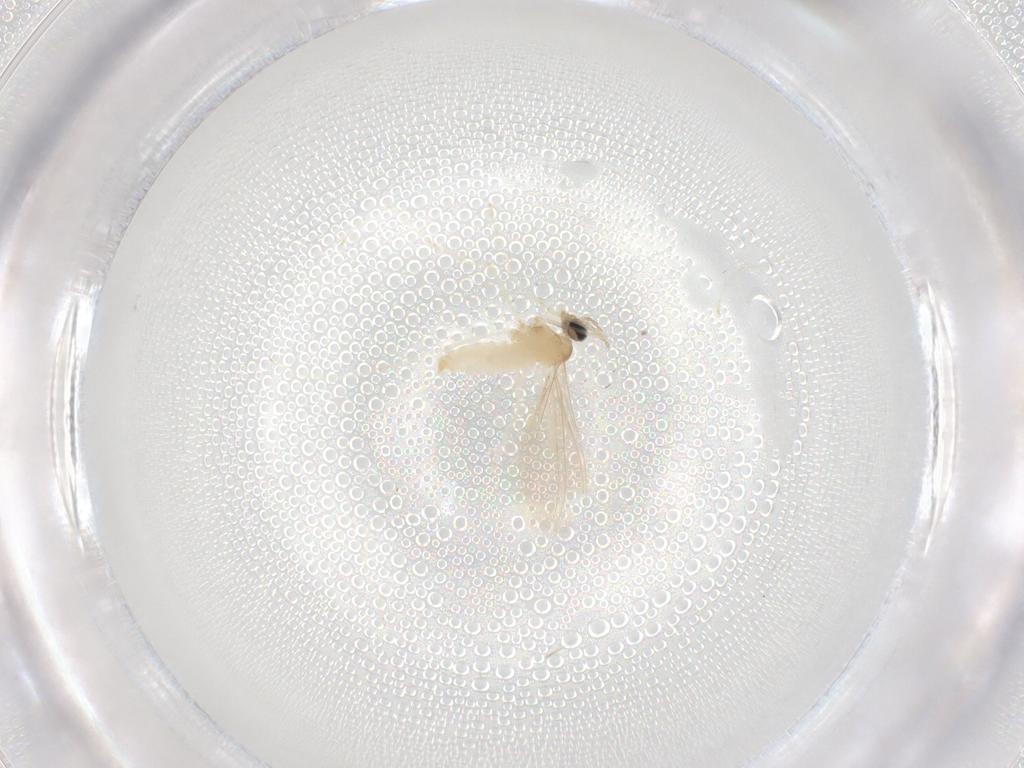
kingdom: Animalia
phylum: Arthropoda
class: Insecta
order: Diptera
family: Cecidomyiidae
